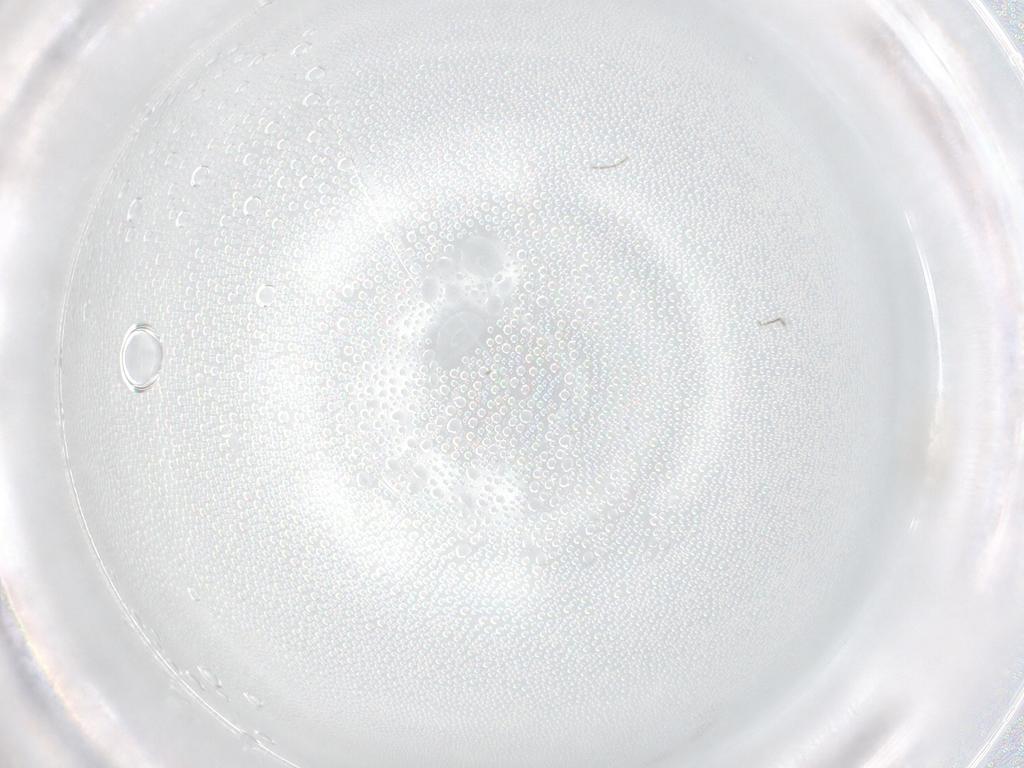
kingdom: Animalia
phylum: Arthropoda
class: Insecta
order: Diptera
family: Cecidomyiidae
